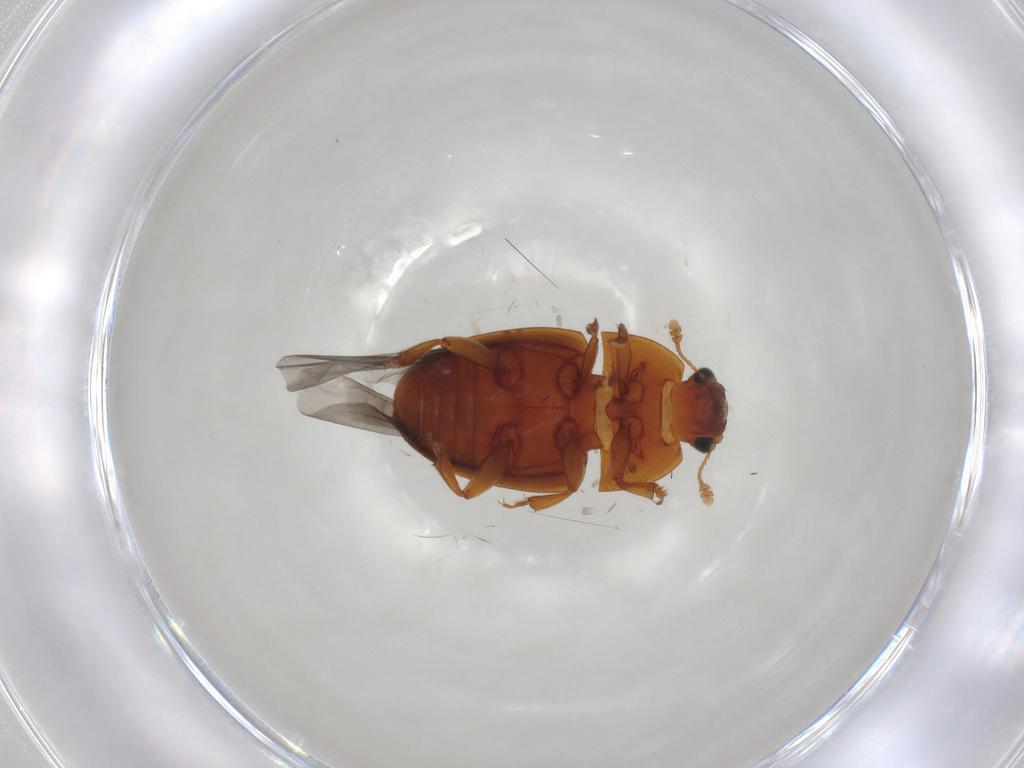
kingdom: Animalia
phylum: Arthropoda
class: Insecta
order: Coleoptera
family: Nitidulidae
